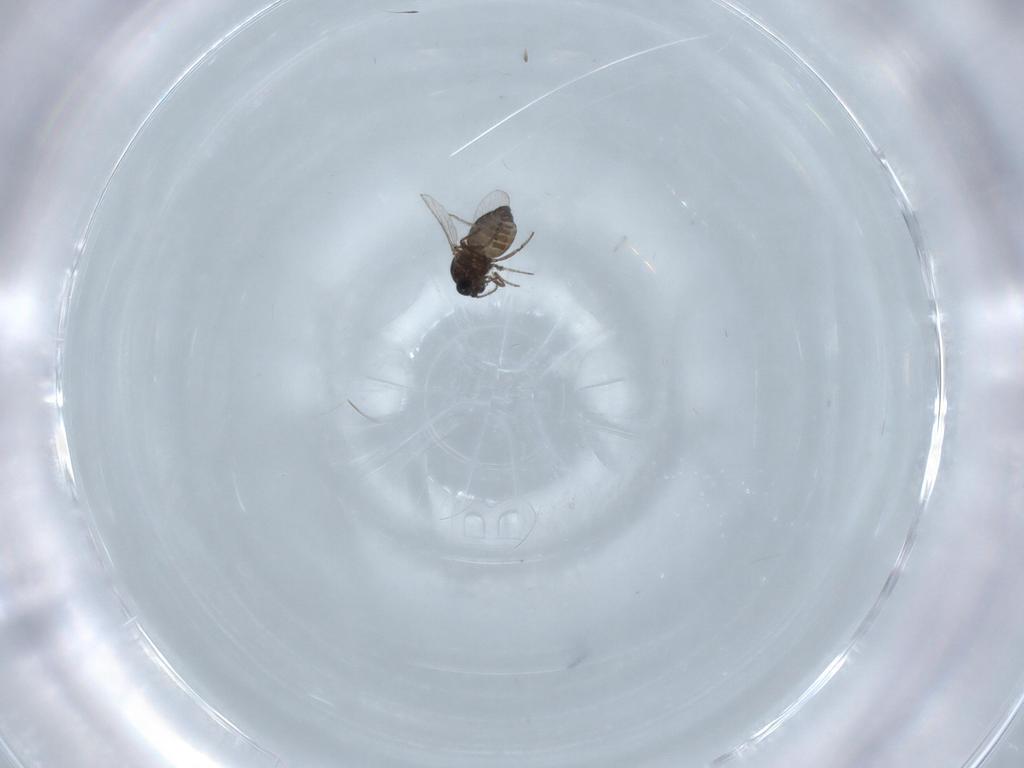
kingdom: Animalia
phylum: Arthropoda
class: Insecta
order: Diptera
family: Ceratopogonidae
